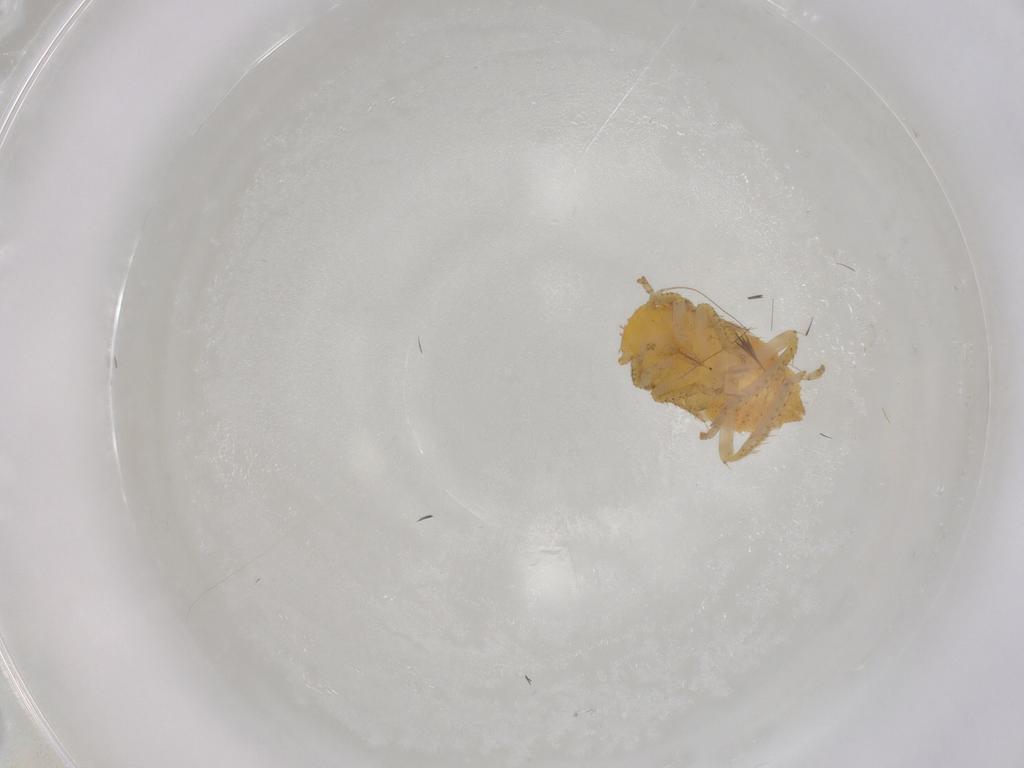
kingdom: Animalia
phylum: Arthropoda
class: Insecta
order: Hemiptera
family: Cicadellidae
